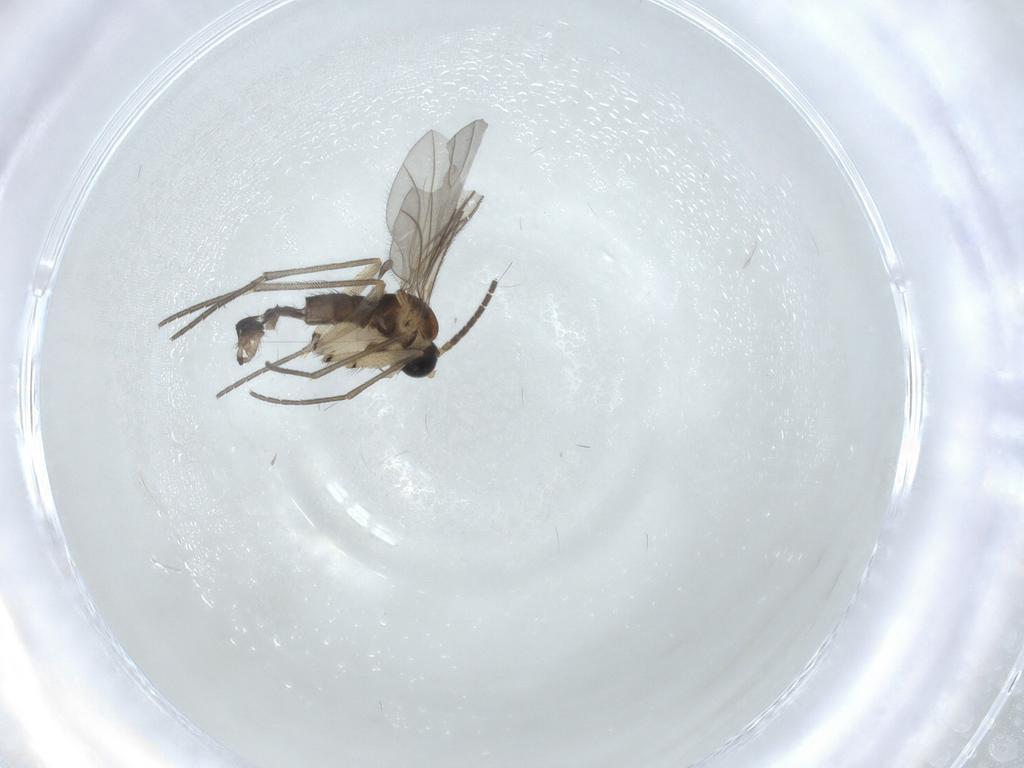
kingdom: Animalia
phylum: Arthropoda
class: Insecta
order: Diptera
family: Sciaridae
